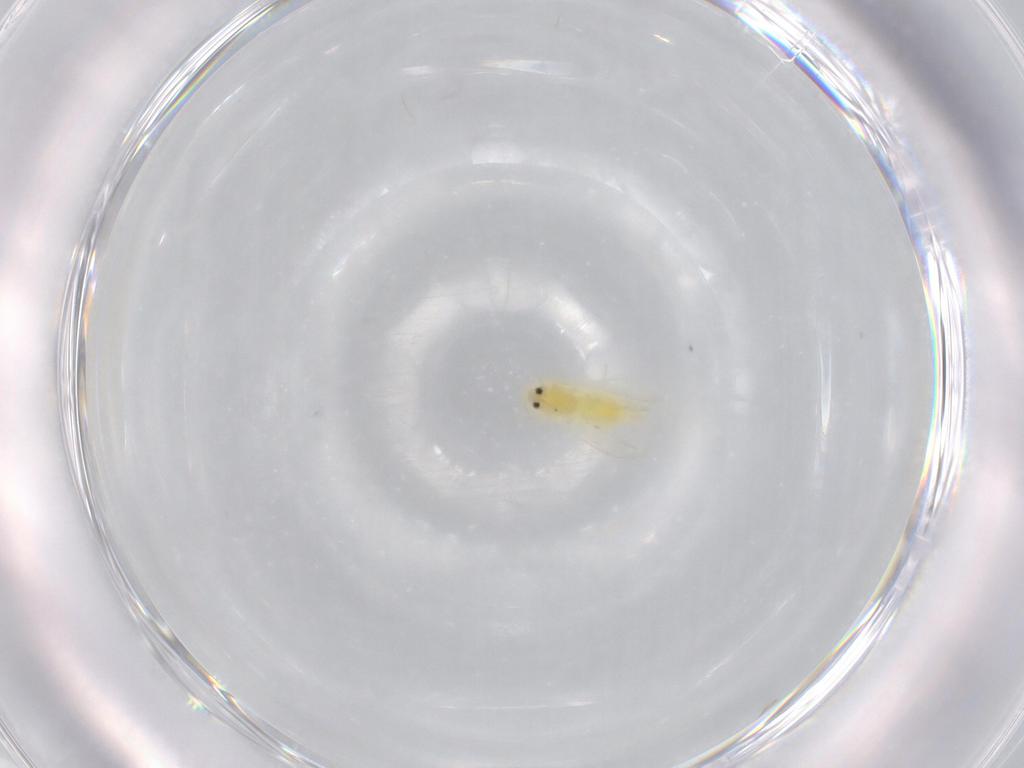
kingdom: Animalia
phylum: Arthropoda
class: Insecta
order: Hemiptera
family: Aleyrodidae
